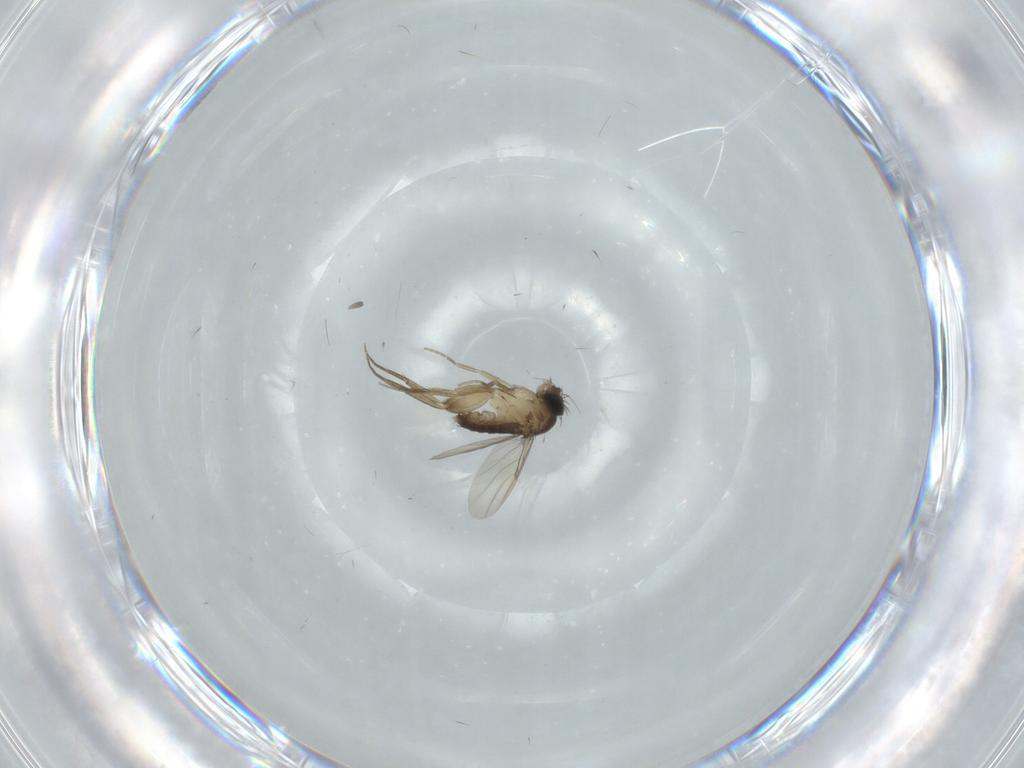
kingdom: Animalia
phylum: Arthropoda
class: Insecta
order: Diptera
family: Phoridae
